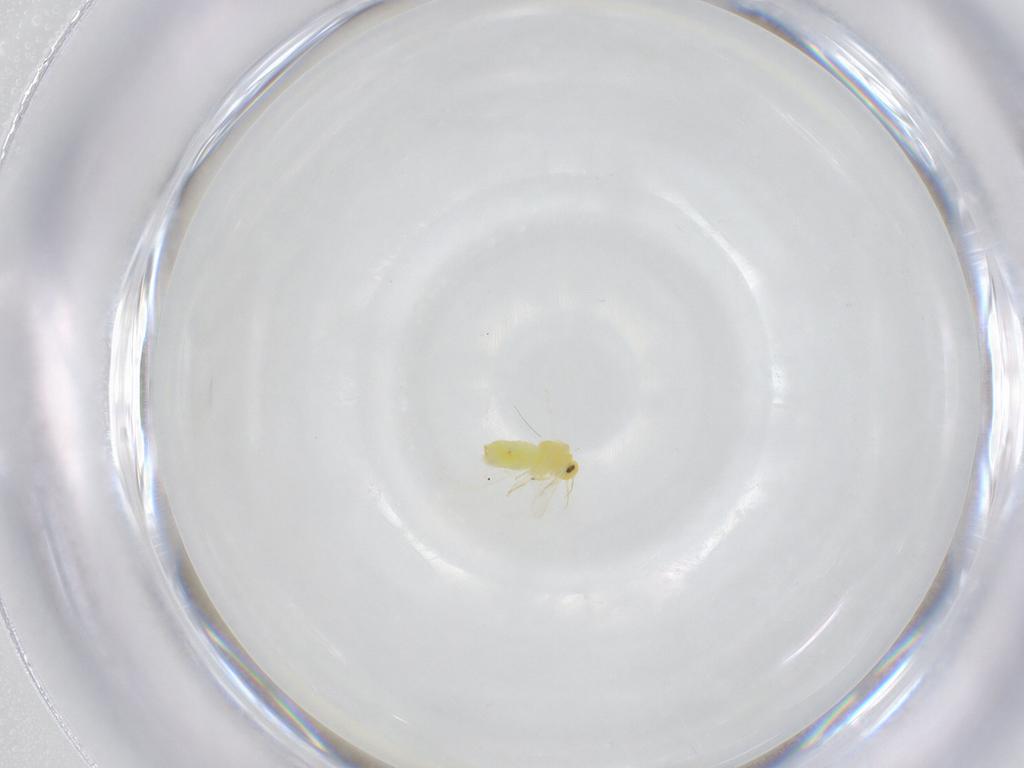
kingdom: Animalia
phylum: Arthropoda
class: Insecta
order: Hemiptera
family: Aleyrodidae
